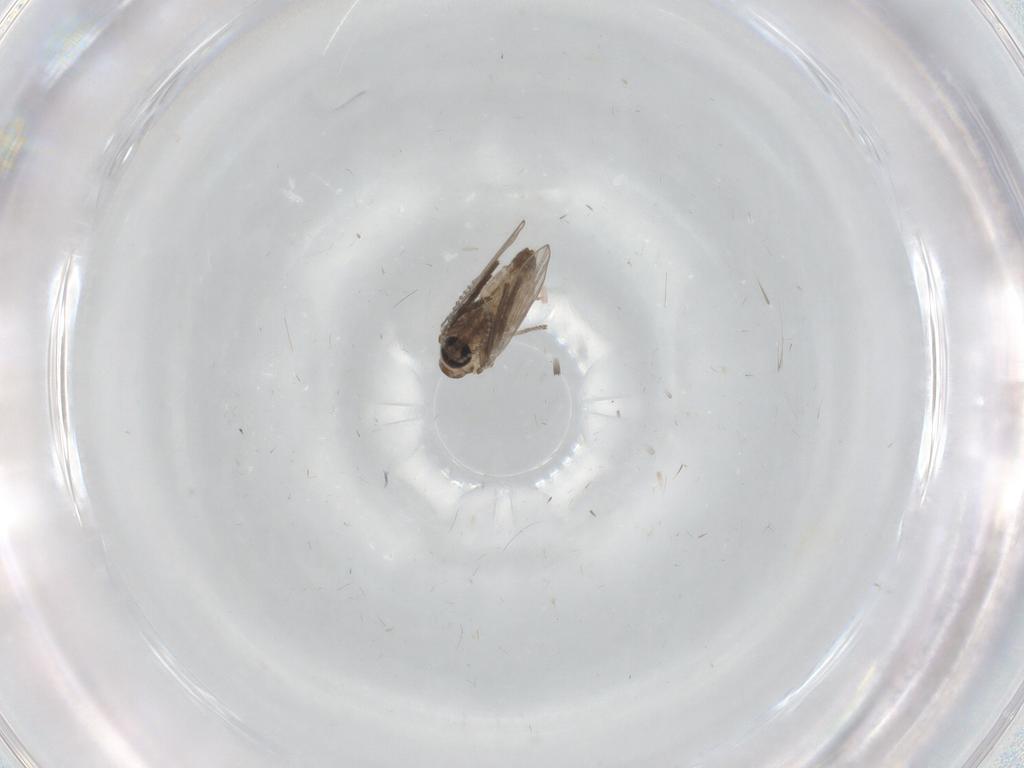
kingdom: Animalia
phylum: Arthropoda
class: Insecta
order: Diptera
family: Psychodidae
